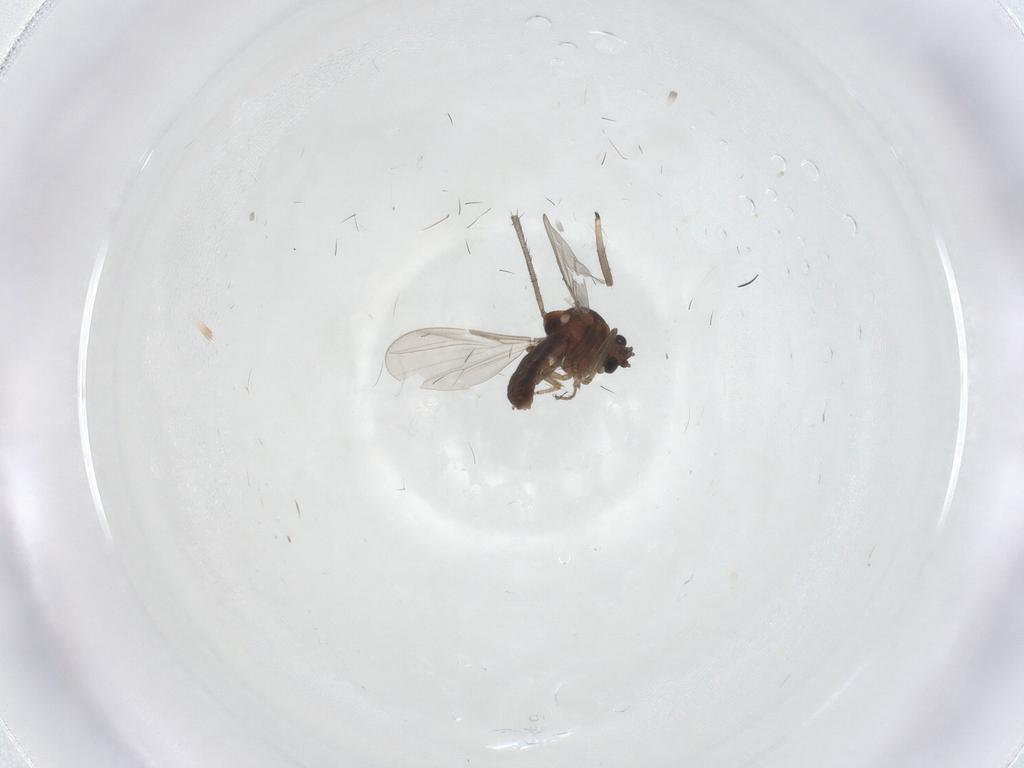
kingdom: Animalia
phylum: Arthropoda
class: Insecta
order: Diptera
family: Ceratopogonidae
